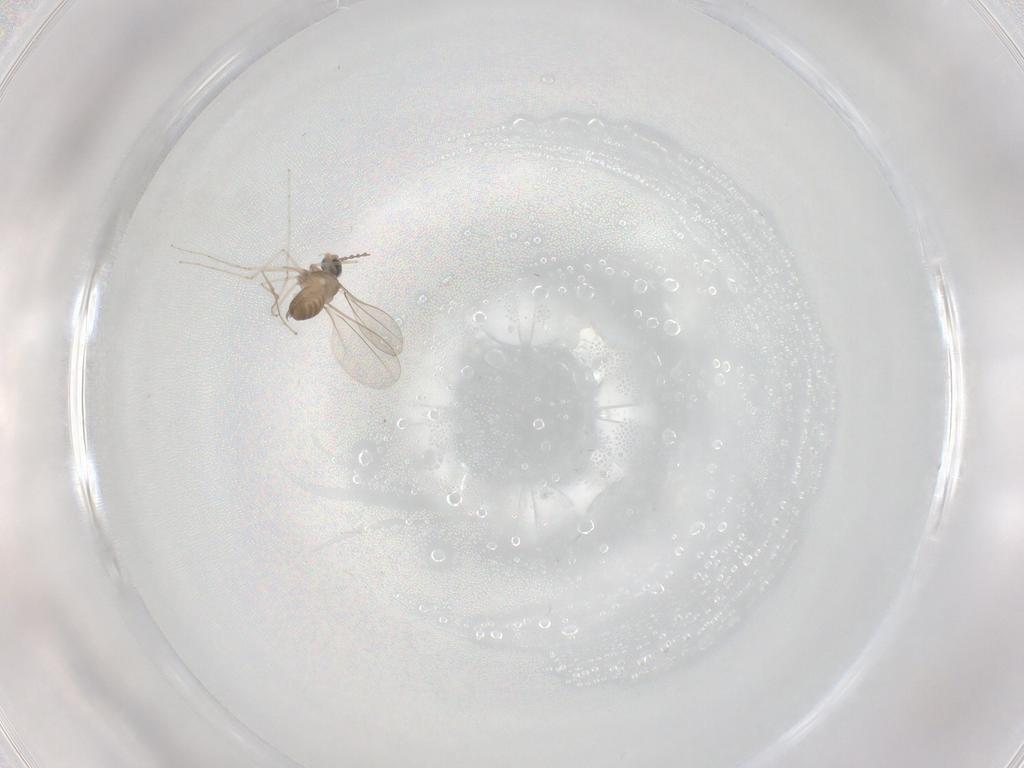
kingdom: Animalia
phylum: Arthropoda
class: Insecta
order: Diptera
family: Cecidomyiidae
